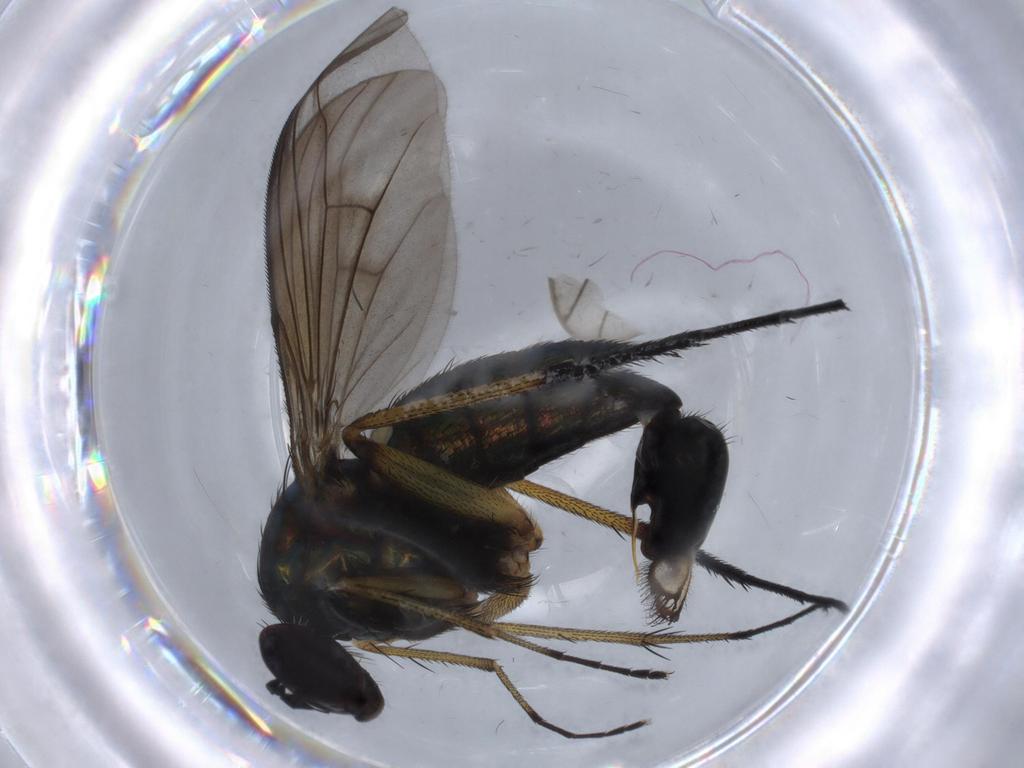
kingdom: Animalia
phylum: Arthropoda
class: Insecta
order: Diptera
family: Dolichopodidae
